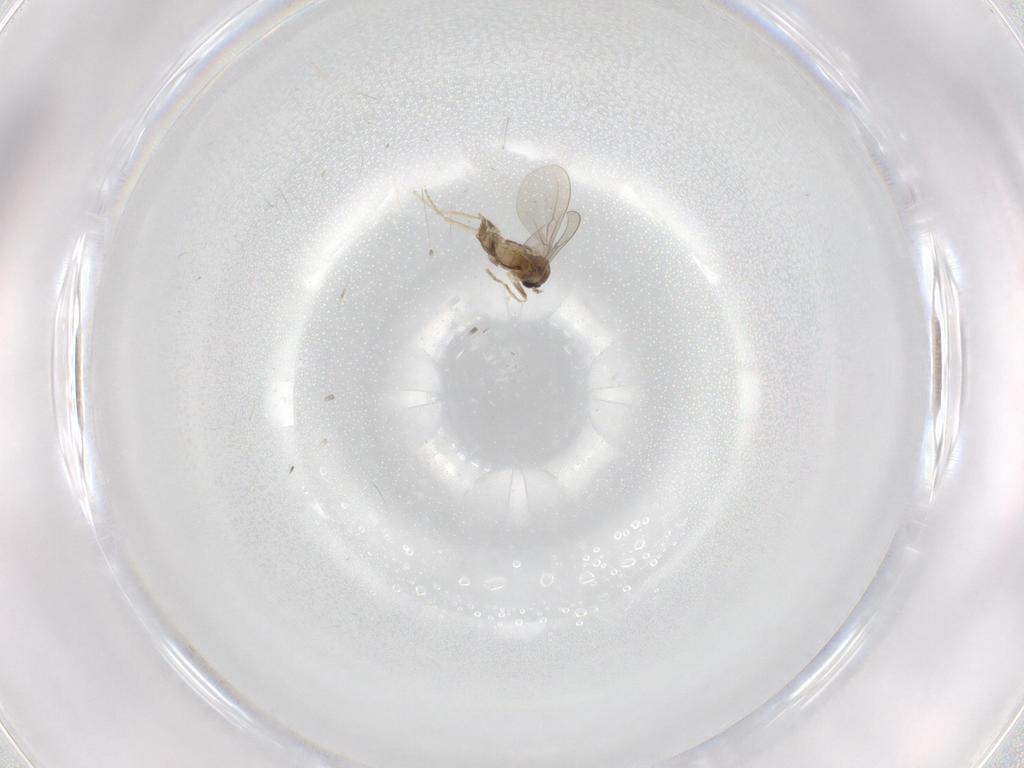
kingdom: Animalia
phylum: Arthropoda
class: Insecta
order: Diptera
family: Cecidomyiidae
